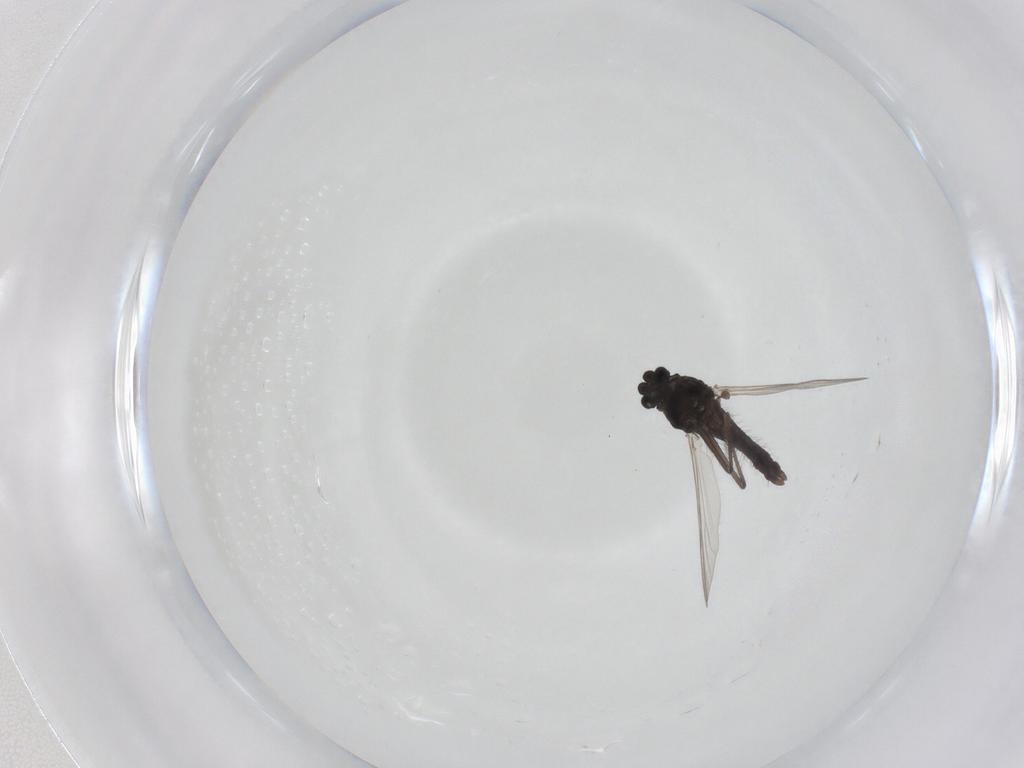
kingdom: Animalia
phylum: Arthropoda
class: Insecta
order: Diptera
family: Chironomidae
